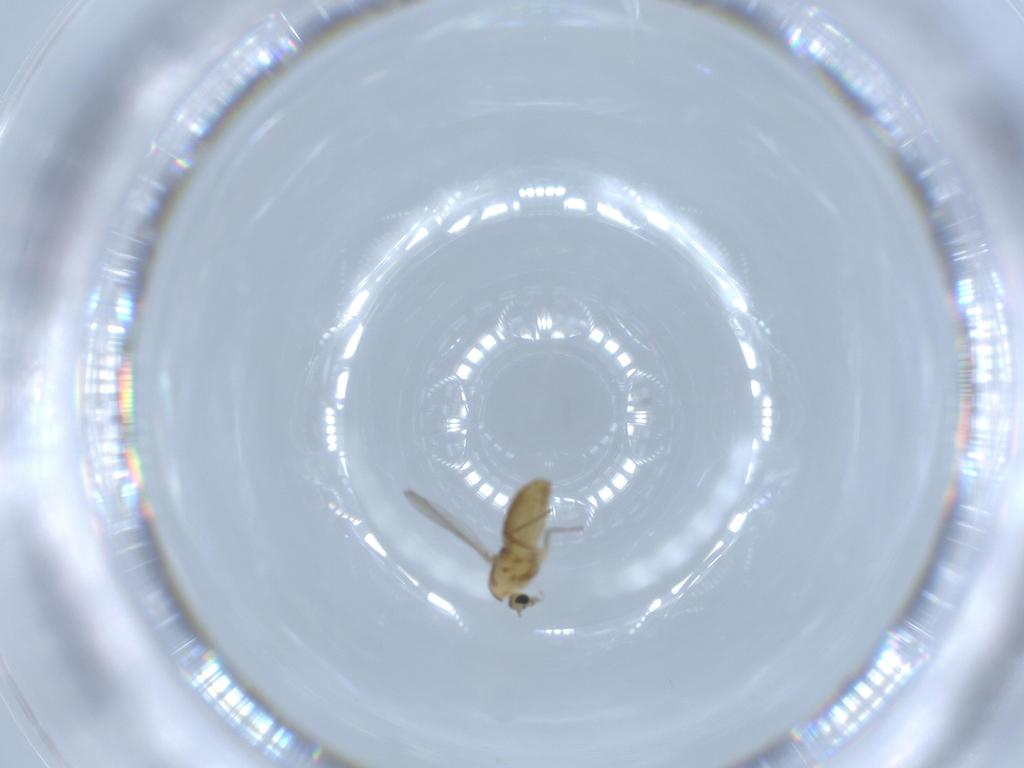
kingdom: Animalia
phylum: Arthropoda
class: Insecta
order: Diptera
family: Chironomidae
